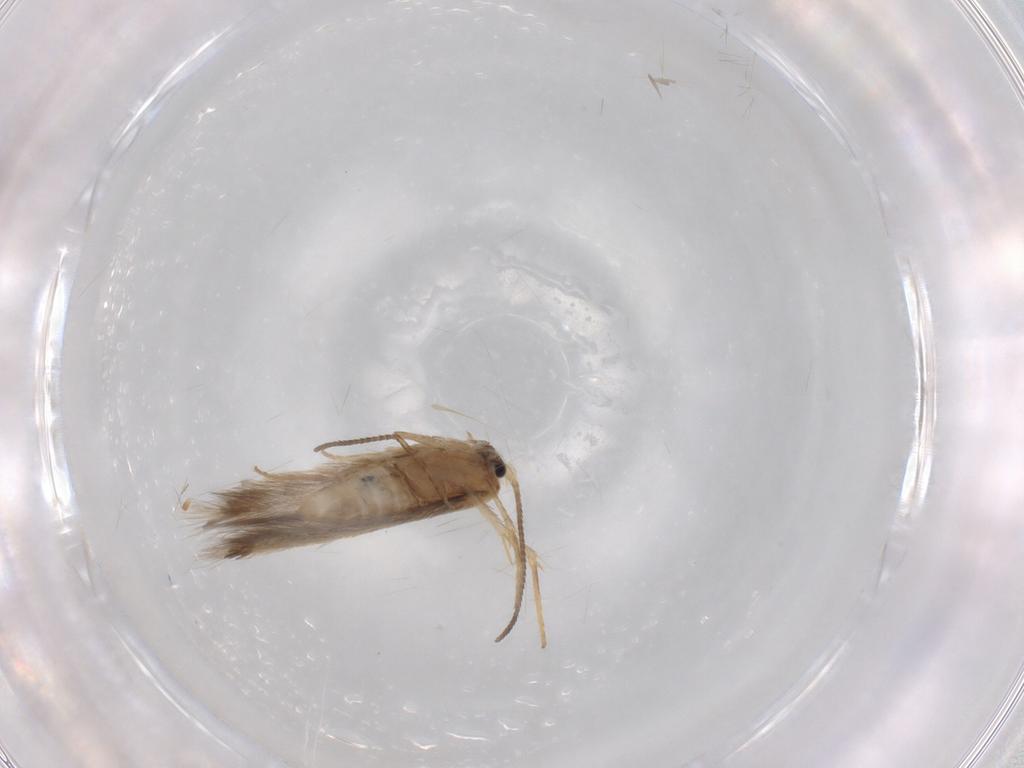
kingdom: Animalia
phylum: Arthropoda
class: Insecta
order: Lepidoptera
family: Nepticulidae
